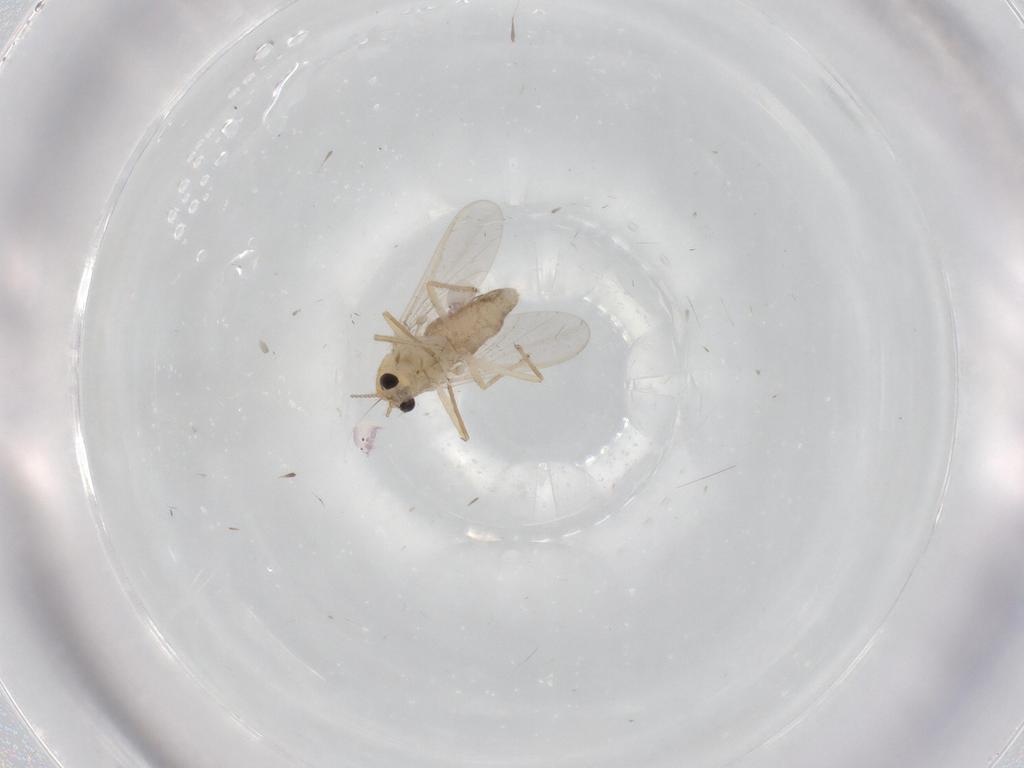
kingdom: Animalia
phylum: Arthropoda
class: Insecta
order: Diptera
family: Chironomidae
